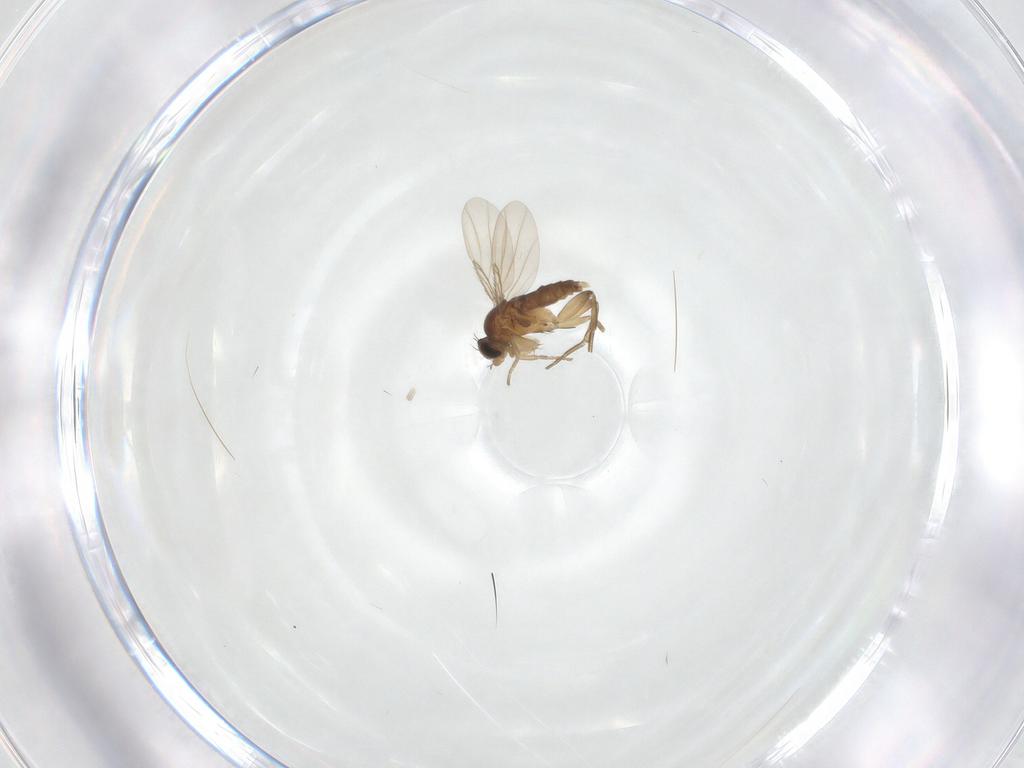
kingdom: Animalia
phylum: Arthropoda
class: Insecta
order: Diptera
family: Phoridae
